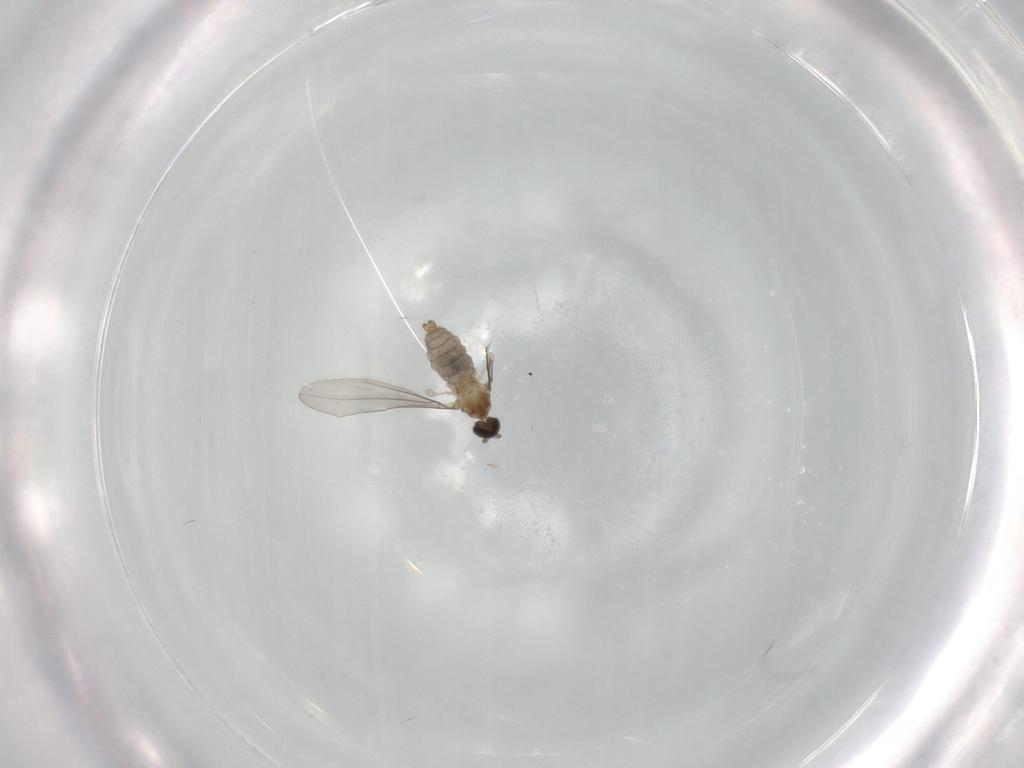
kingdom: Animalia
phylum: Arthropoda
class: Insecta
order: Diptera
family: Cecidomyiidae
